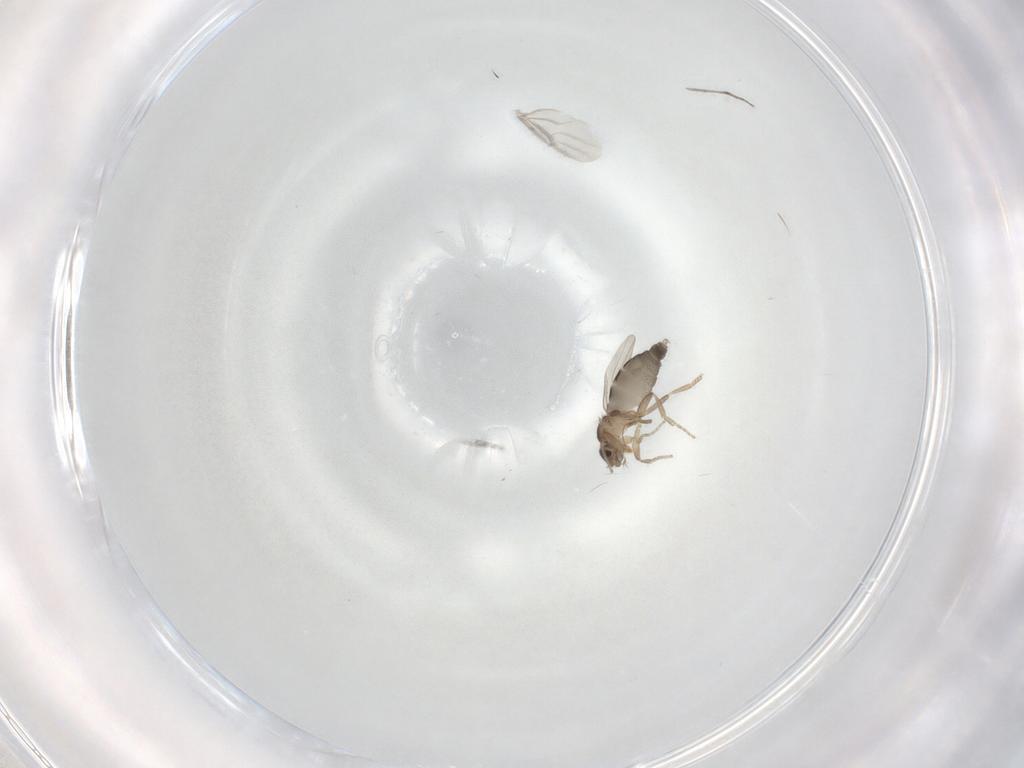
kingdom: Animalia
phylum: Arthropoda
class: Insecta
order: Diptera
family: Phoridae
